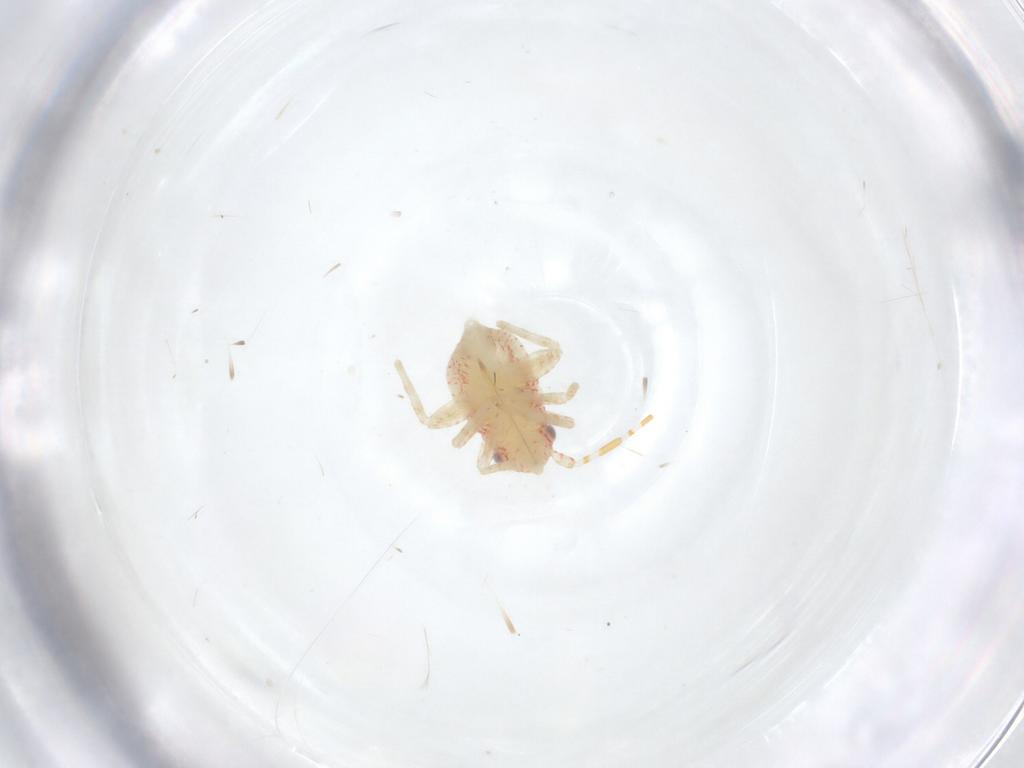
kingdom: Animalia
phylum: Arthropoda
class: Insecta
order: Hemiptera
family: Miridae
